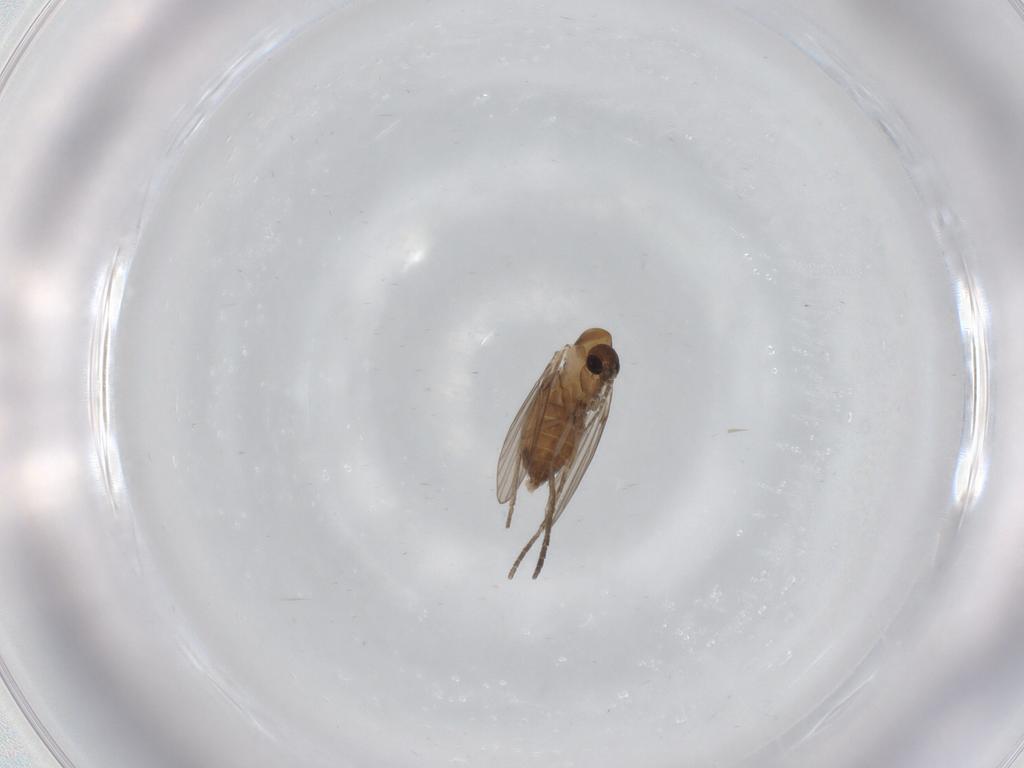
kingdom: Animalia
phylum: Arthropoda
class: Insecta
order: Diptera
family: Psychodidae
